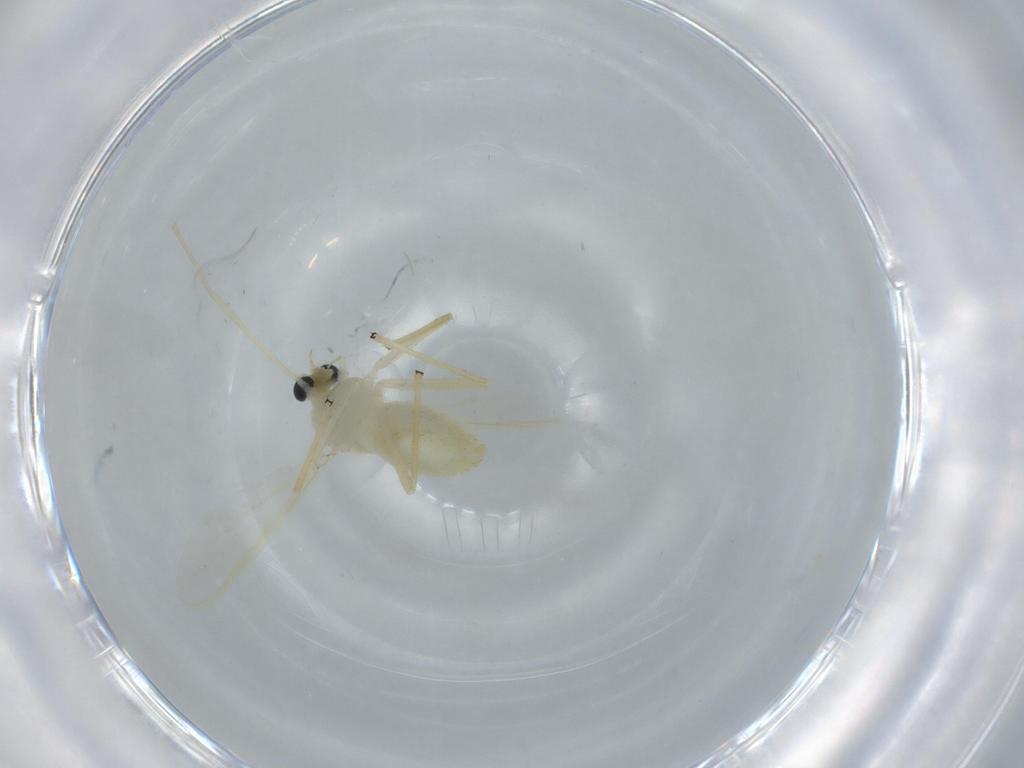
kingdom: Animalia
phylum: Arthropoda
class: Insecta
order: Diptera
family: Chironomidae
